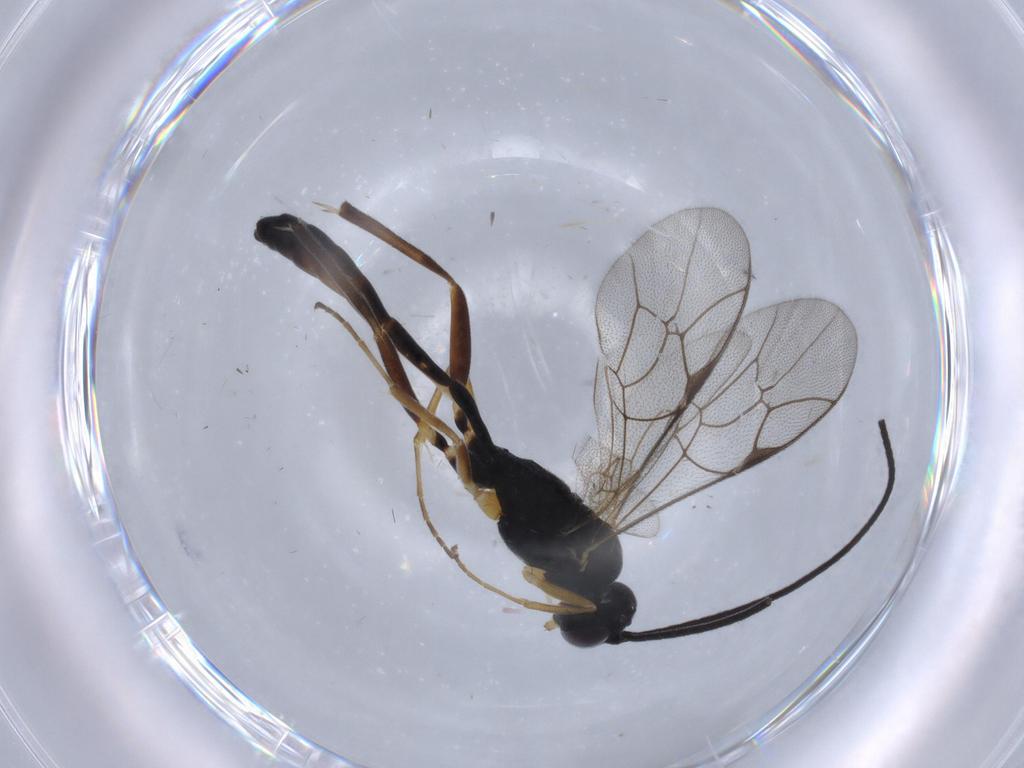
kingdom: Animalia
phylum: Arthropoda
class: Insecta
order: Hymenoptera
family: Ichneumonidae
